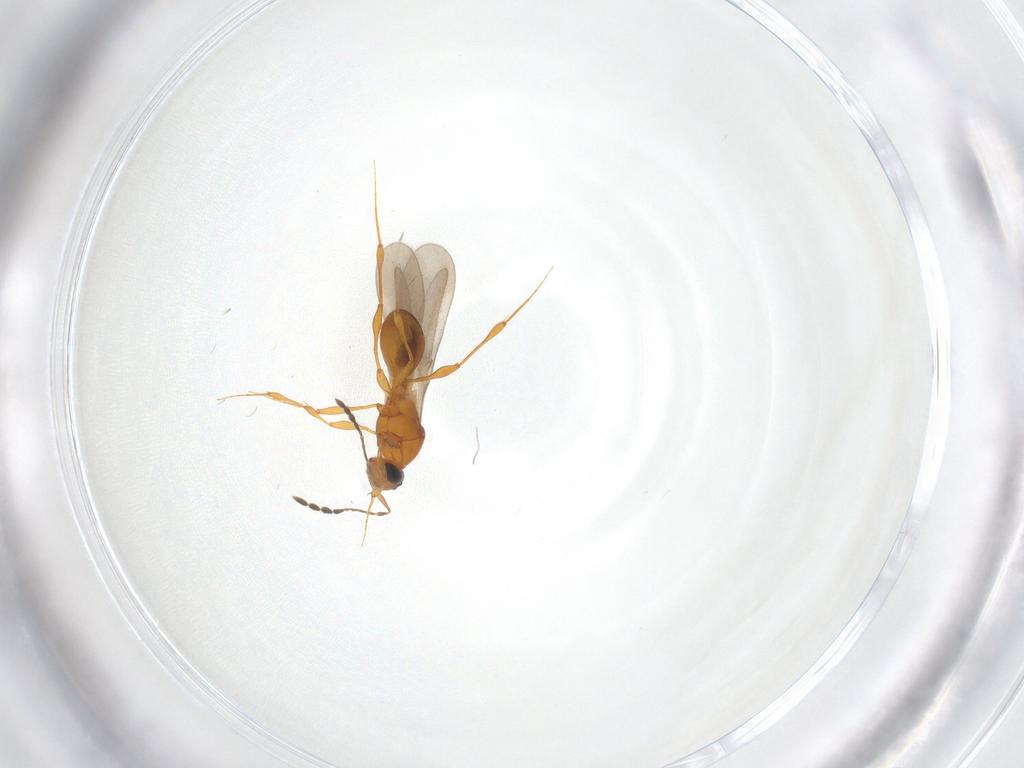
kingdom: Animalia
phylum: Arthropoda
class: Insecta
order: Hymenoptera
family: Platygastridae
